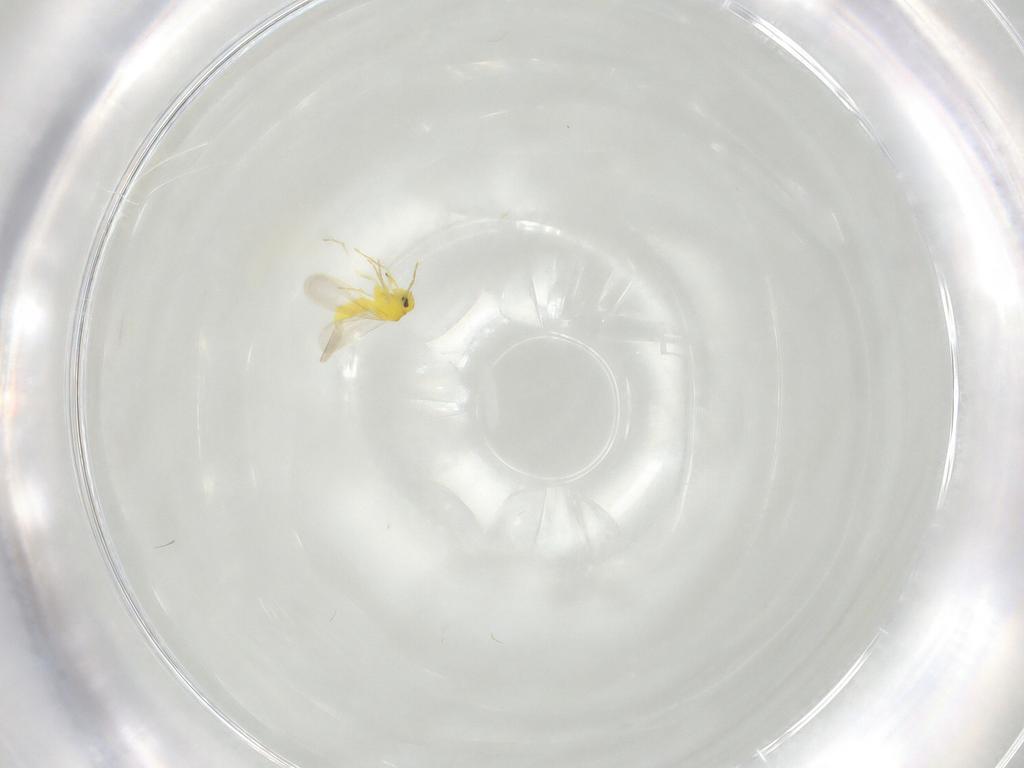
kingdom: Animalia
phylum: Arthropoda
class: Insecta
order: Hemiptera
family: Aleyrodidae
